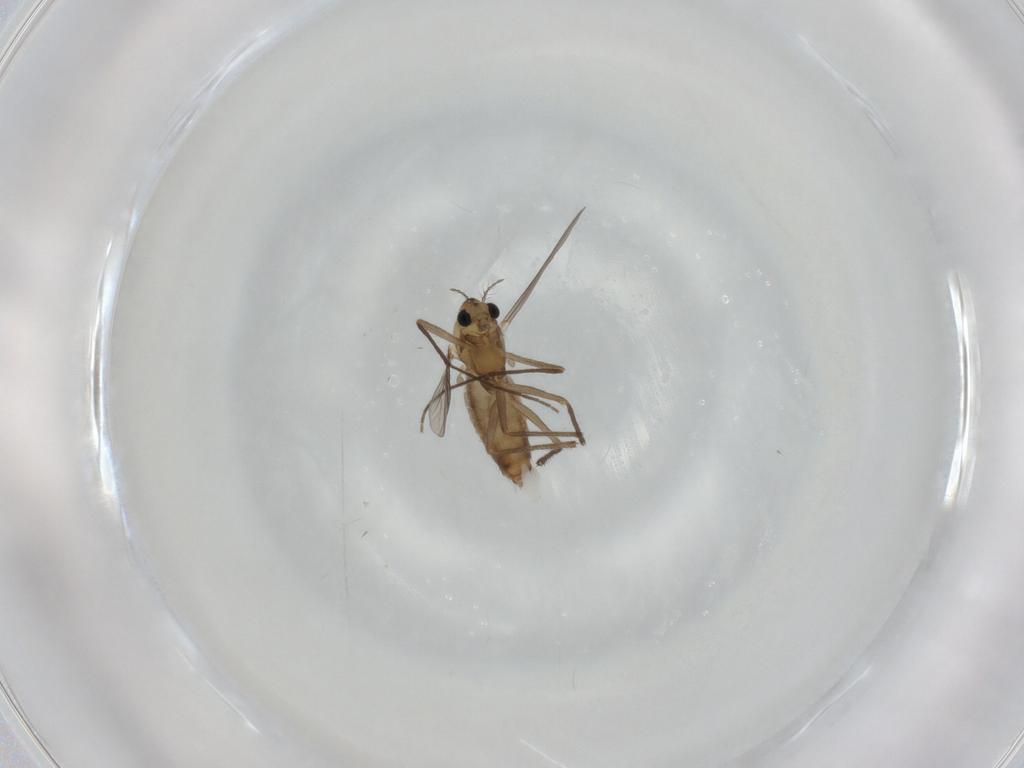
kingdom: Animalia
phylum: Arthropoda
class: Insecta
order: Diptera
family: Chironomidae
